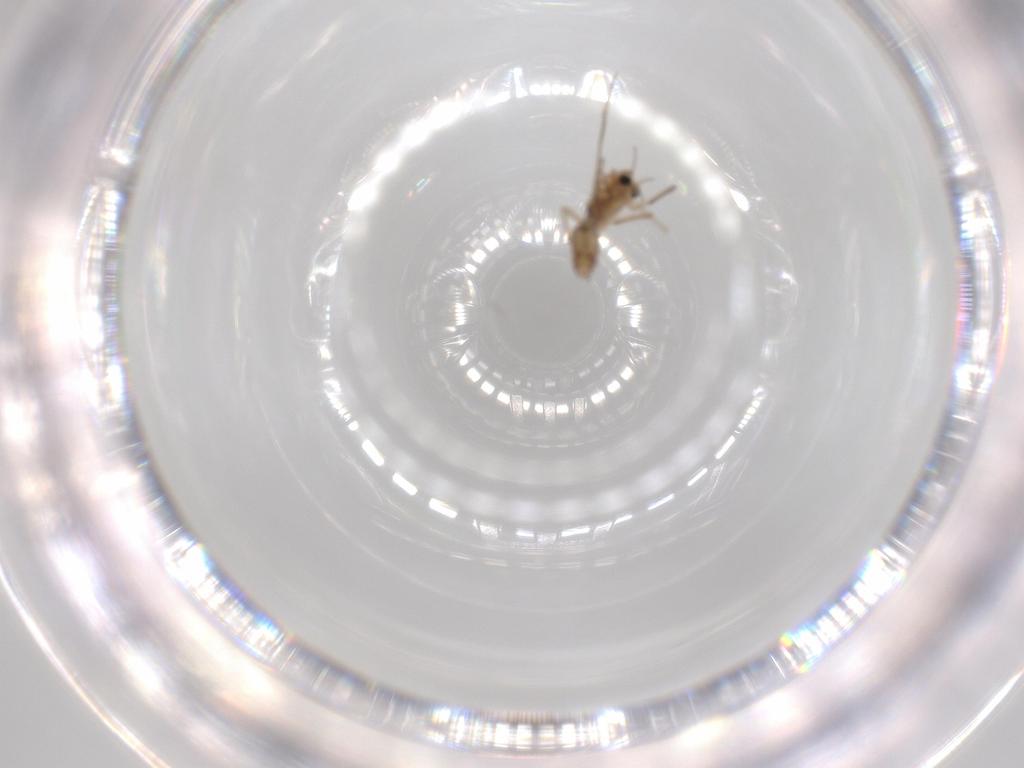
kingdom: Animalia
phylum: Arthropoda
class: Insecta
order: Diptera
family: Chironomidae
